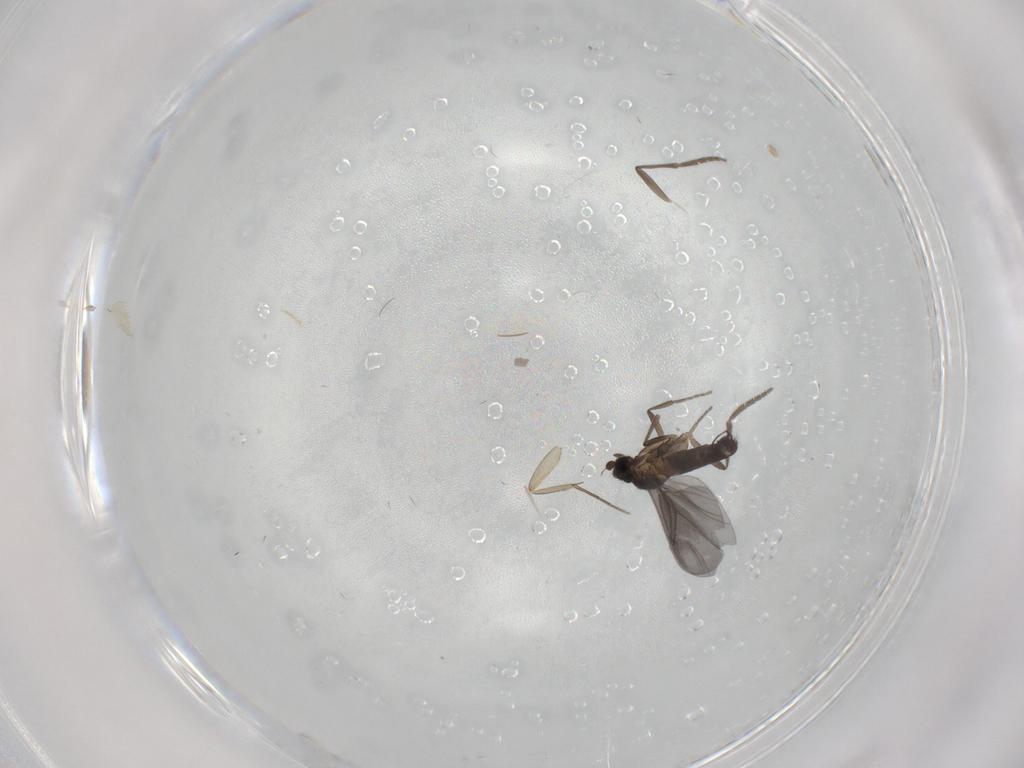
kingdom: Animalia
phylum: Arthropoda
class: Insecta
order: Diptera
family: Phoridae
